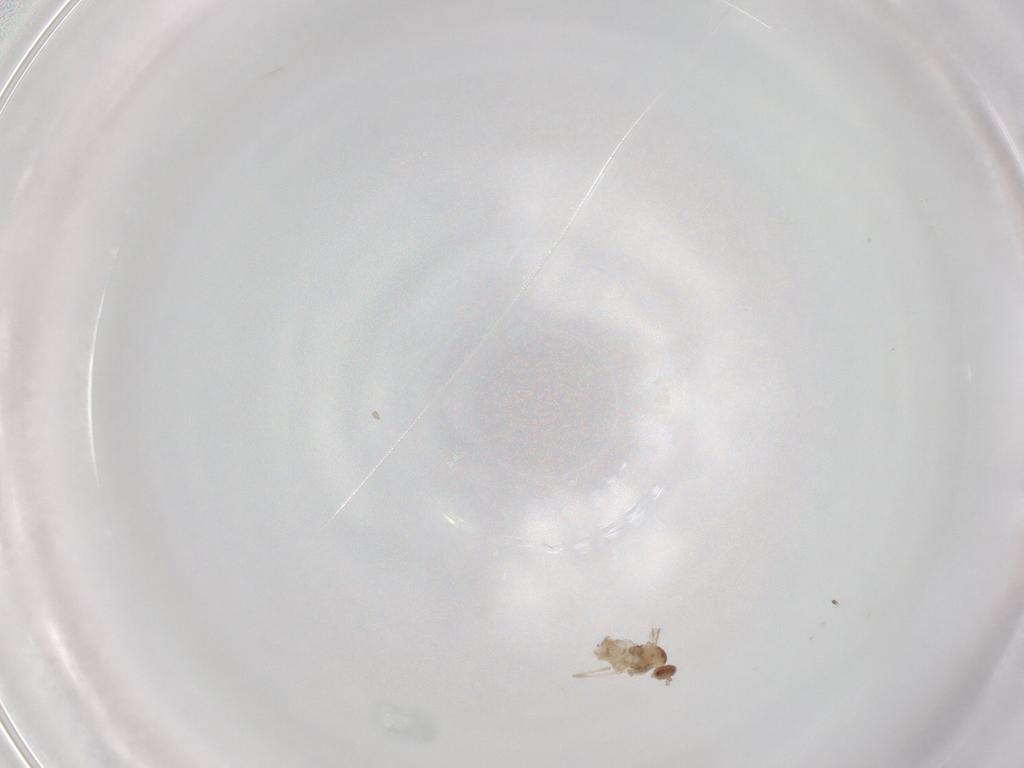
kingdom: Animalia
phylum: Arthropoda
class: Insecta
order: Diptera
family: Cecidomyiidae
